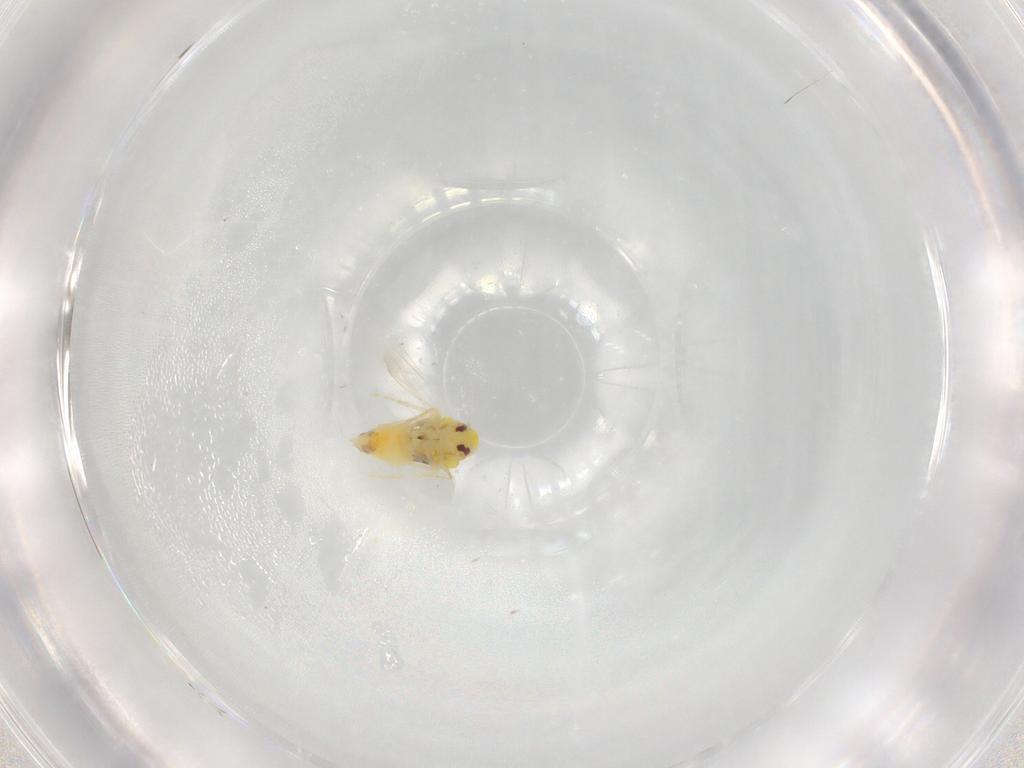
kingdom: Animalia
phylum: Arthropoda
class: Insecta
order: Hemiptera
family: Aleyrodidae
